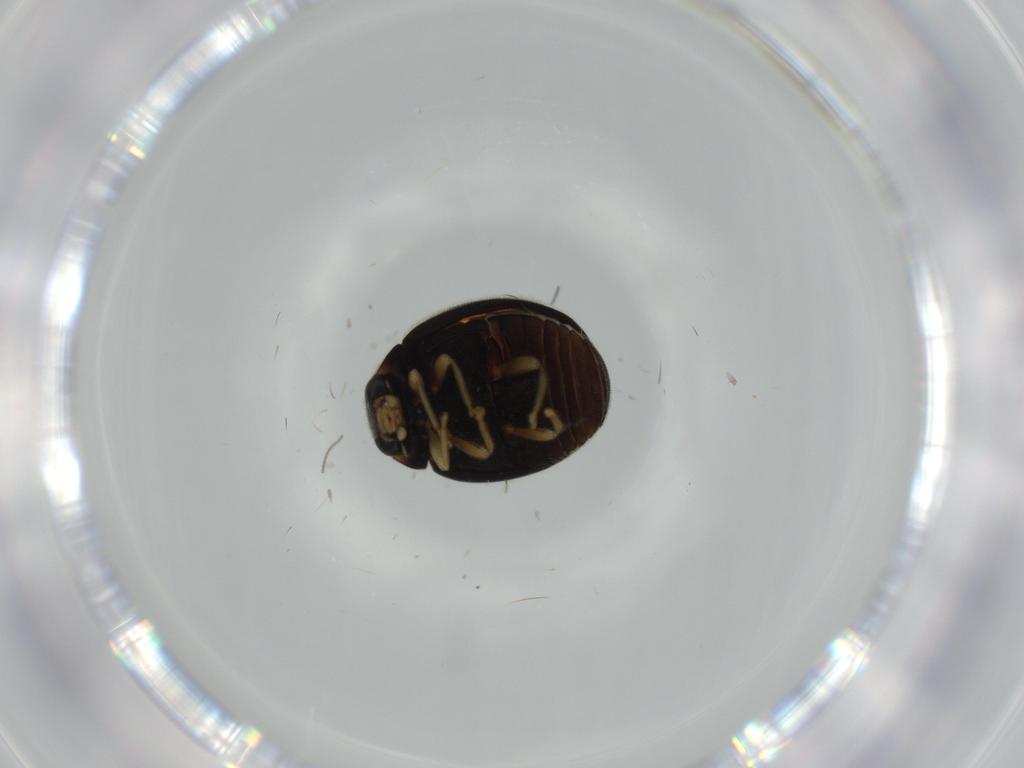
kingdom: Animalia
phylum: Arthropoda
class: Insecta
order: Coleoptera
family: Coccinellidae
